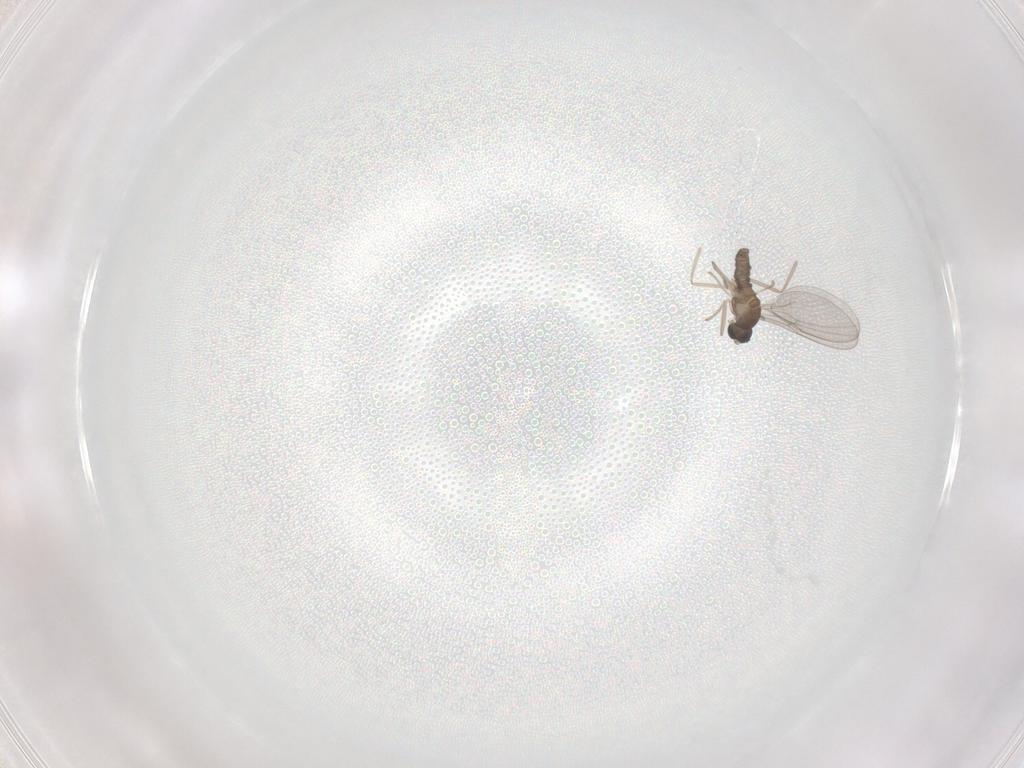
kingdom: Animalia
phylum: Arthropoda
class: Insecta
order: Diptera
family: Cecidomyiidae
